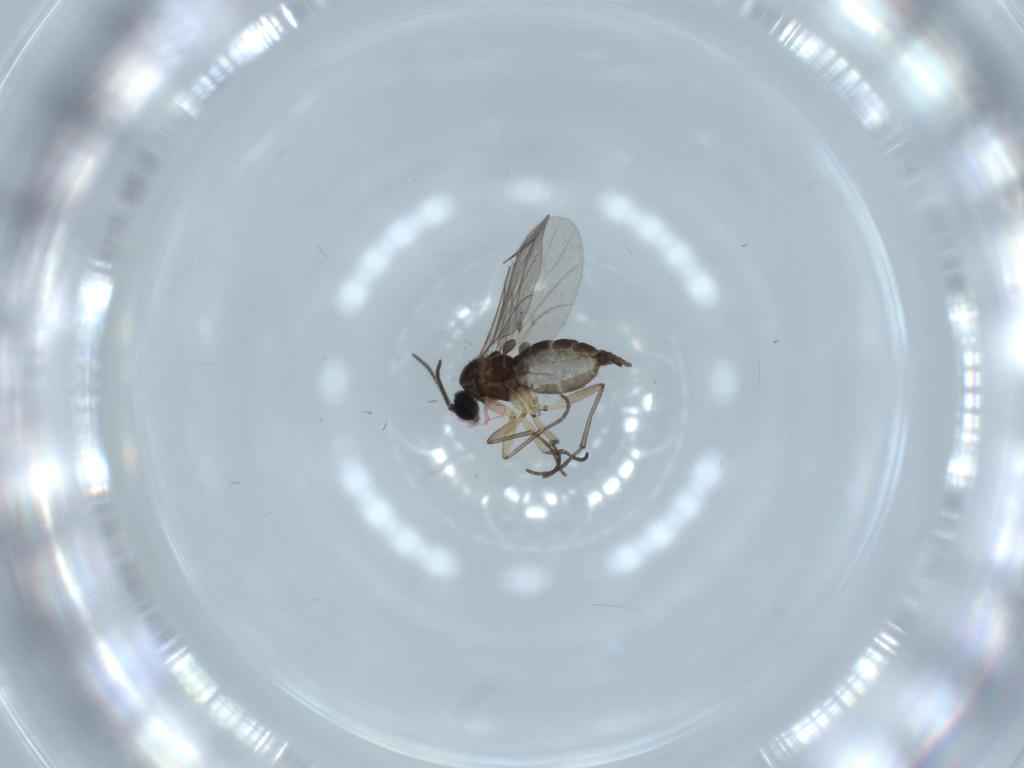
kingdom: Animalia
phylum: Arthropoda
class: Insecta
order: Diptera
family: Sciaridae
